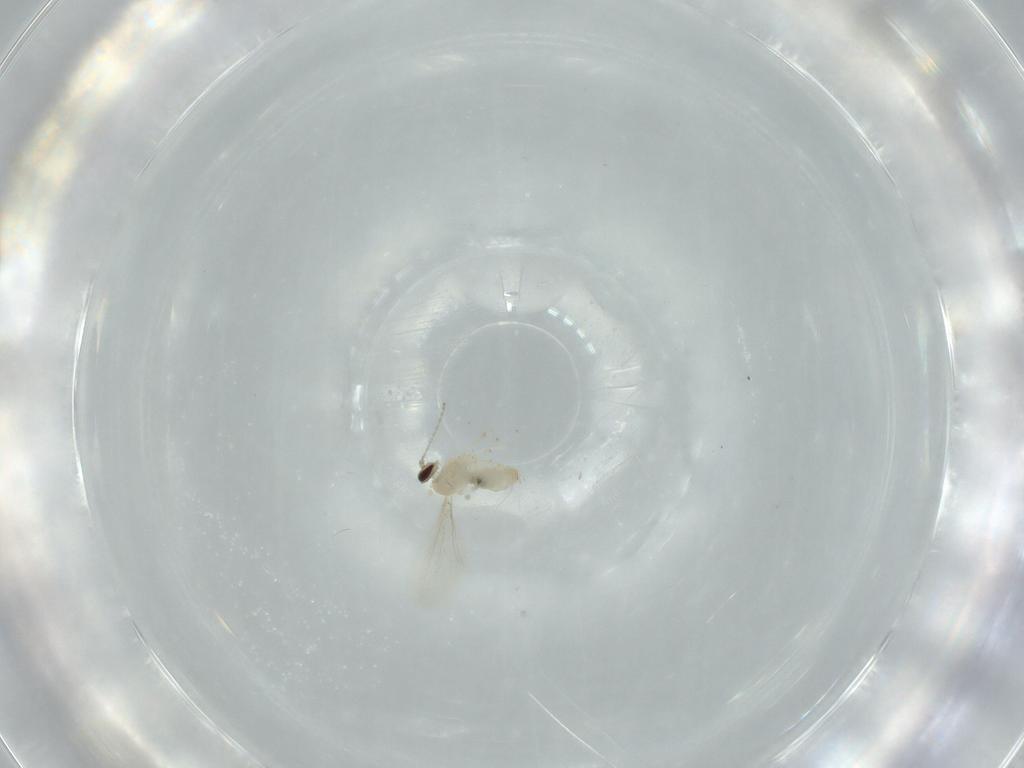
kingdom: Animalia
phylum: Arthropoda
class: Insecta
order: Diptera
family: Cecidomyiidae
